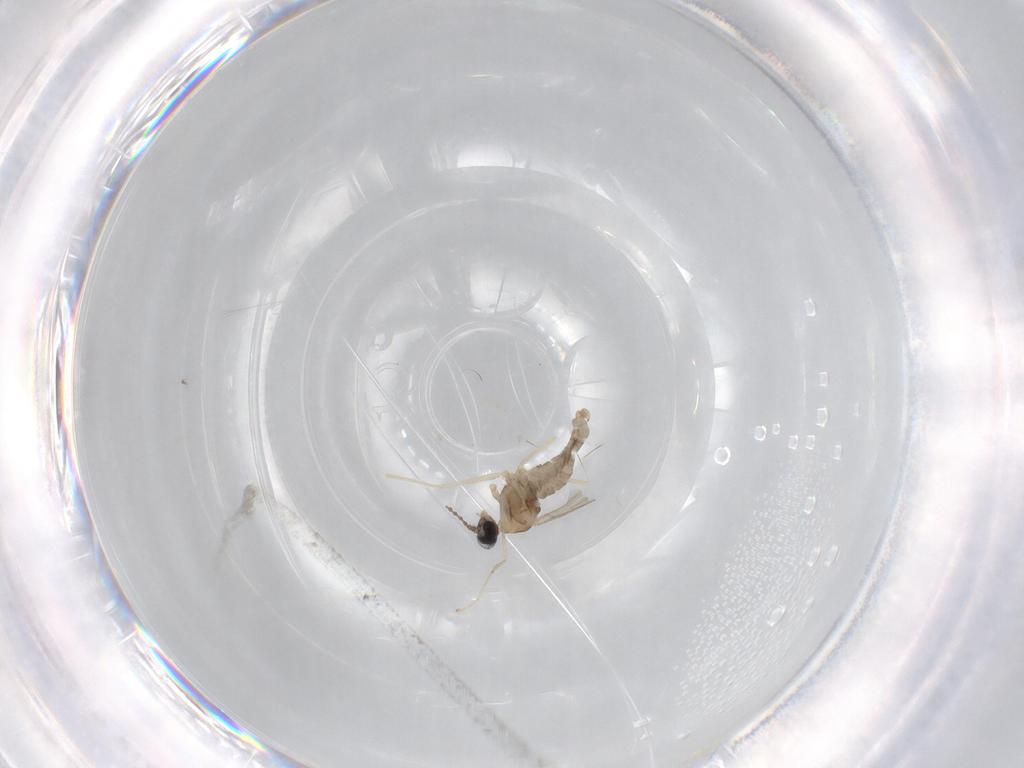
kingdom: Animalia
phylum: Arthropoda
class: Insecta
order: Diptera
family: Cecidomyiidae
